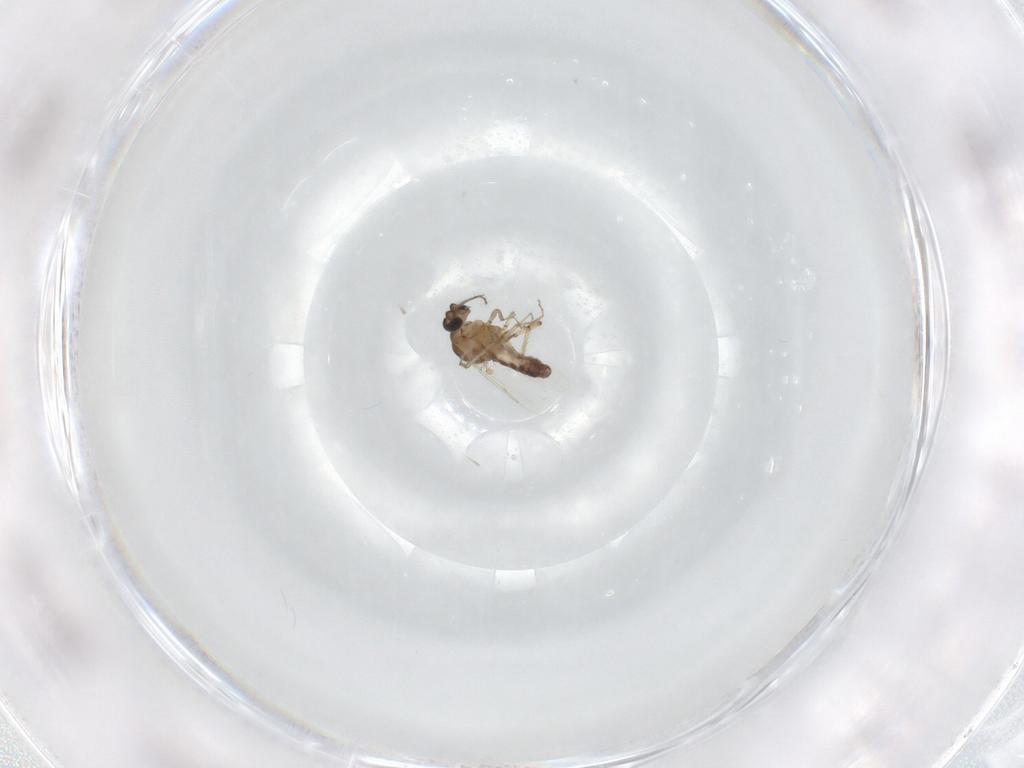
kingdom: Animalia
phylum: Arthropoda
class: Insecta
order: Diptera
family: Ceratopogonidae
